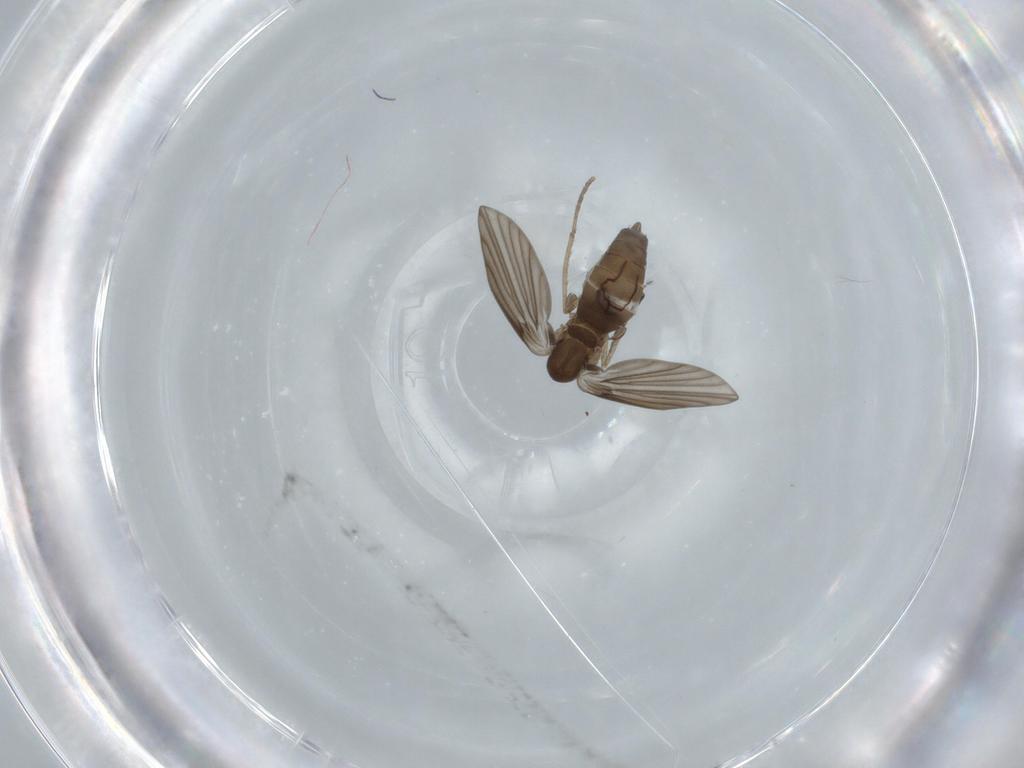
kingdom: Animalia
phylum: Arthropoda
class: Insecta
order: Diptera
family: Psychodidae
